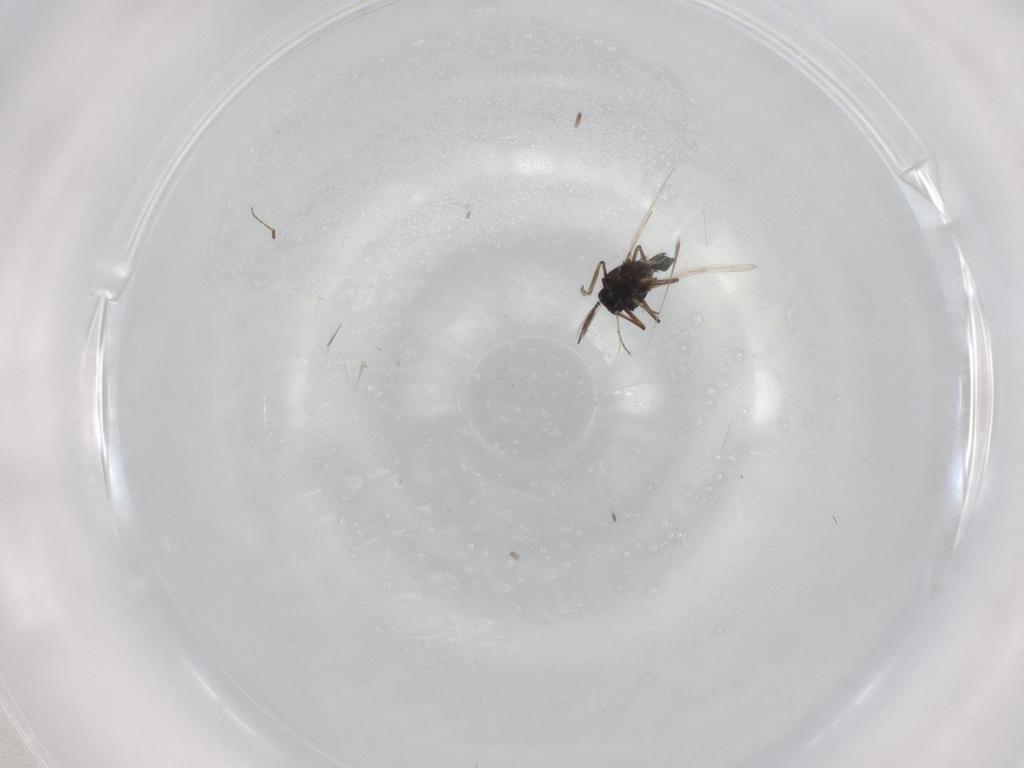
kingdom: Animalia
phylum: Arthropoda
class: Insecta
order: Diptera
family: Ceratopogonidae
